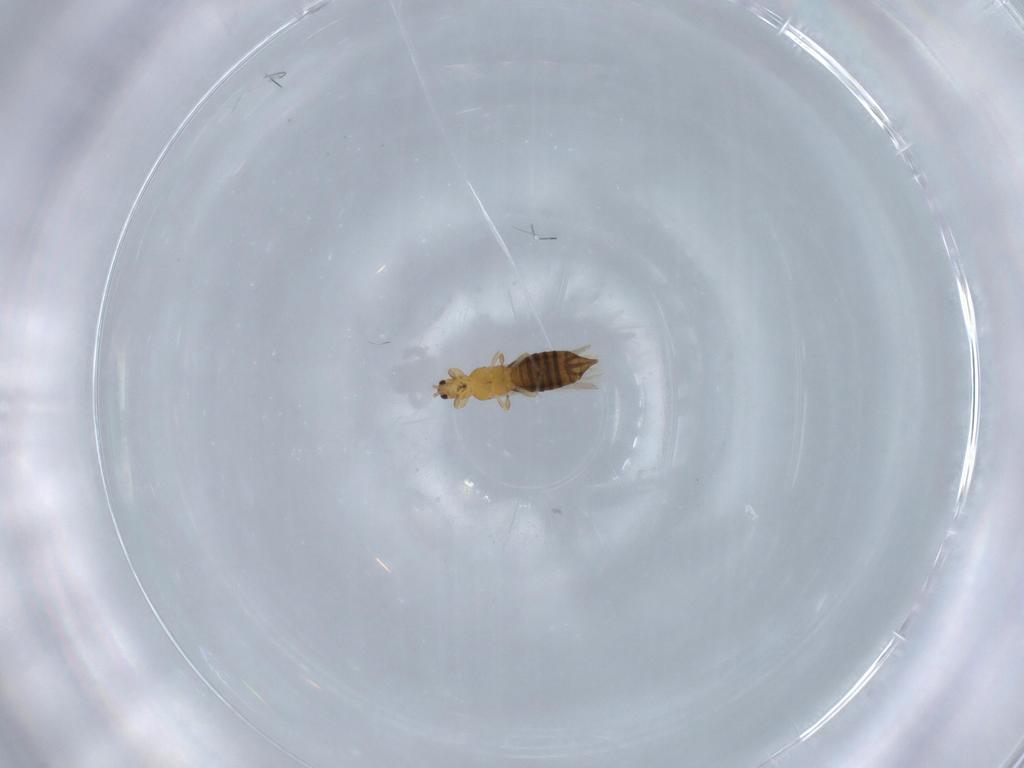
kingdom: Animalia
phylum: Arthropoda
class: Insecta
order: Thysanoptera
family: Thripidae
